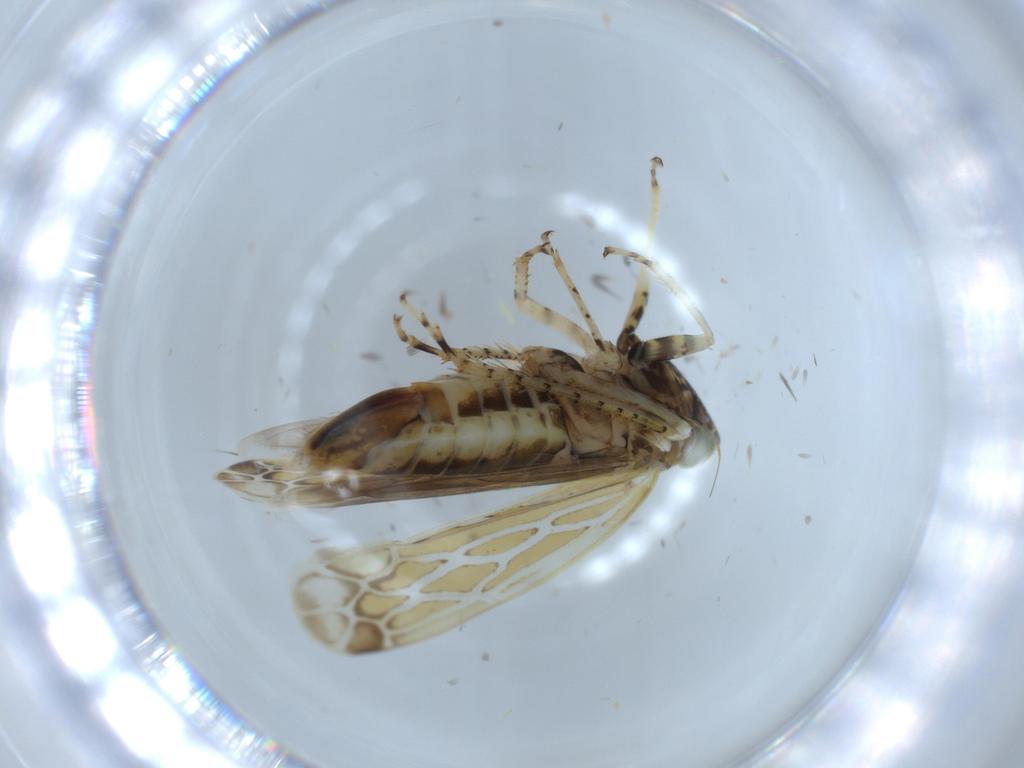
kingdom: Animalia
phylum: Arthropoda
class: Insecta
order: Hemiptera
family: Cicadellidae
